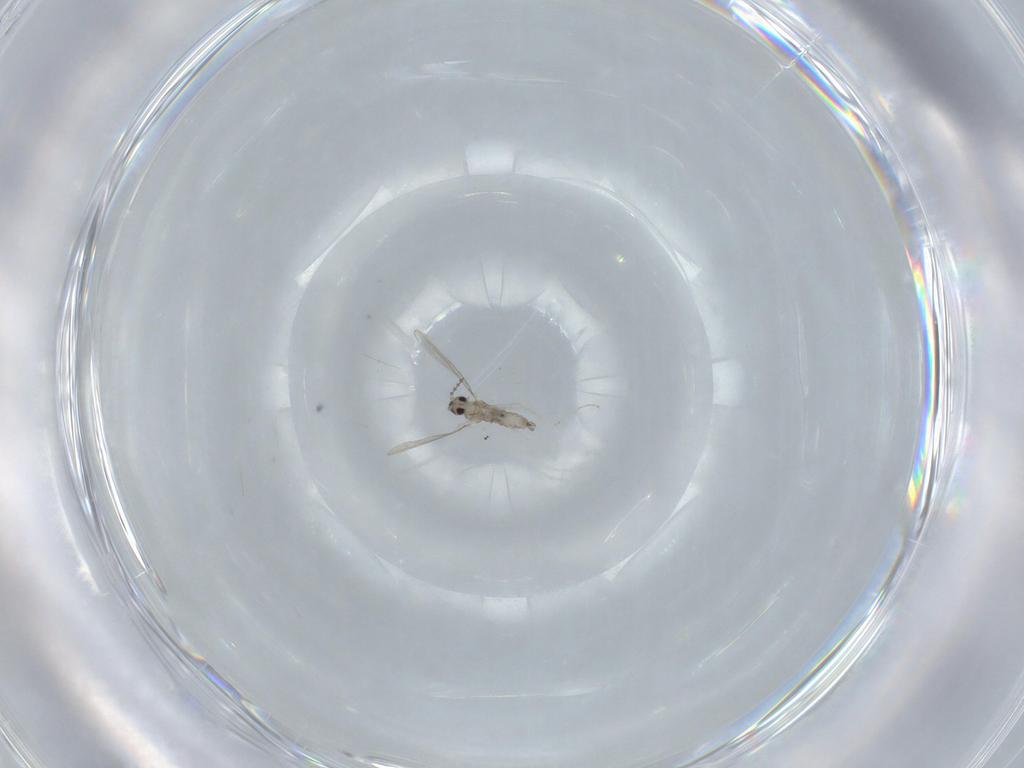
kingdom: Animalia
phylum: Arthropoda
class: Insecta
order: Diptera
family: Cecidomyiidae
